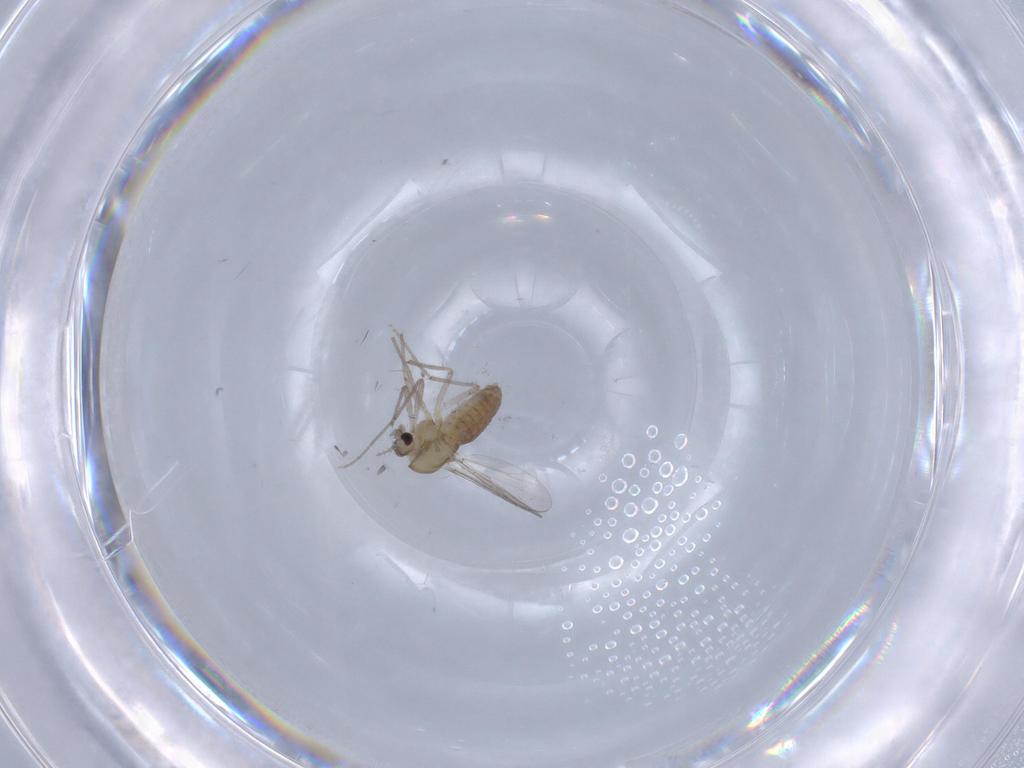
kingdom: Animalia
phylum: Arthropoda
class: Insecta
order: Diptera
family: Chironomidae
